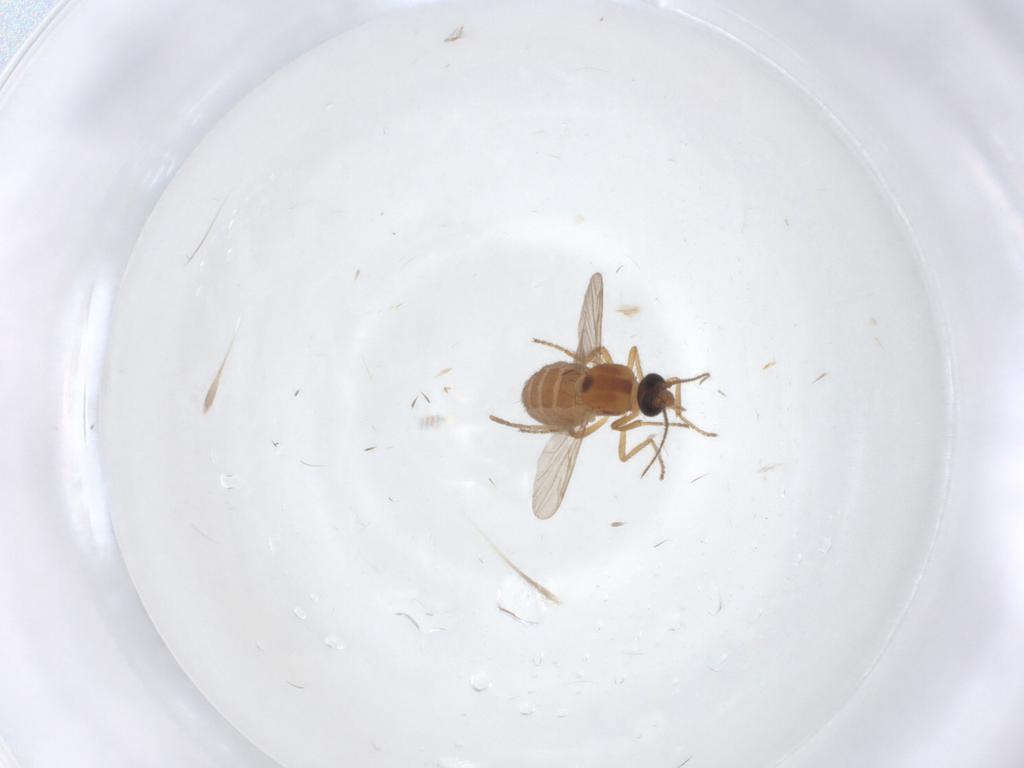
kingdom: Animalia
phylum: Arthropoda
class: Insecta
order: Diptera
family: Ceratopogonidae
